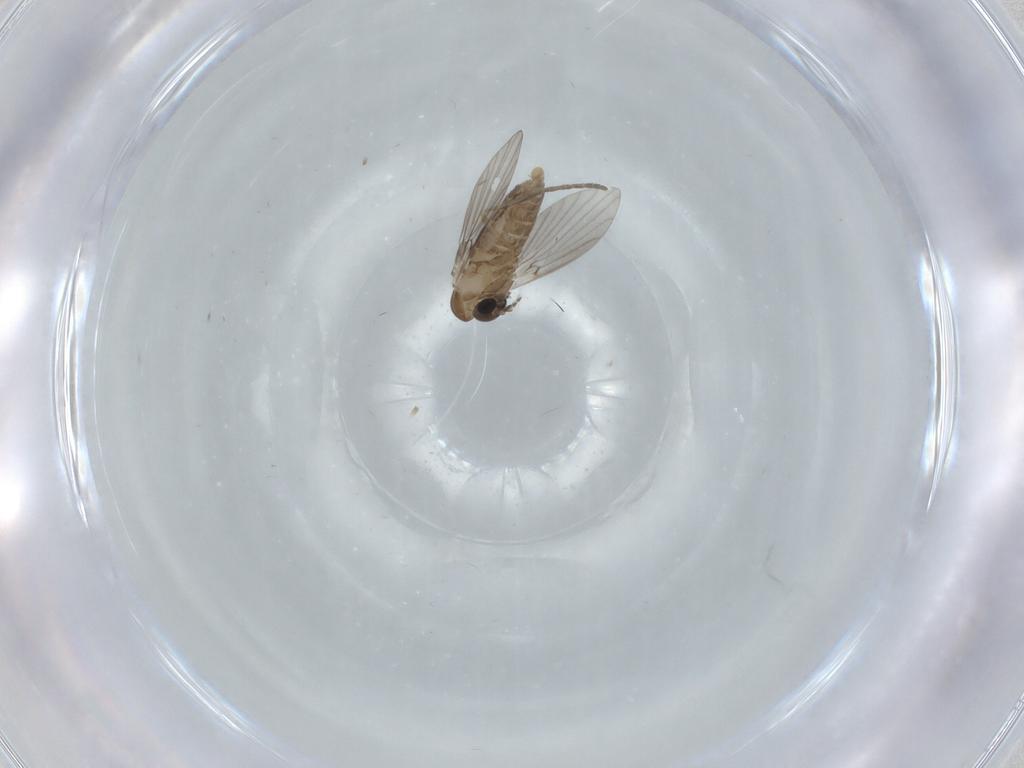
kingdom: Animalia
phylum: Arthropoda
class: Insecta
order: Diptera
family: Psychodidae
